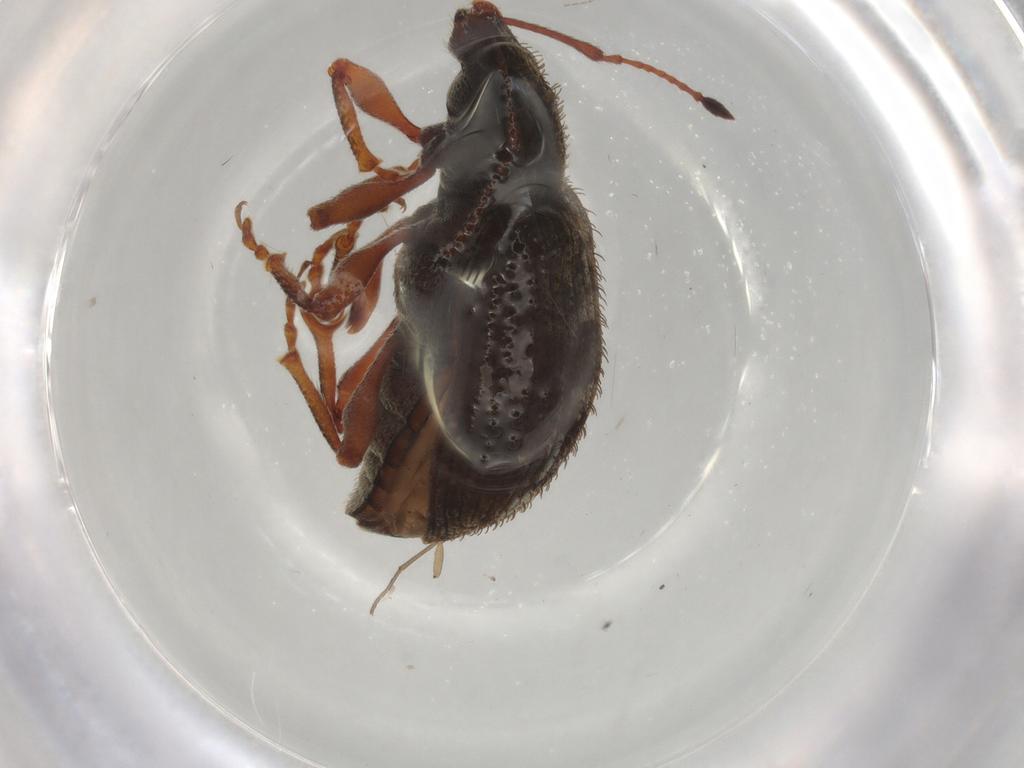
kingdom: Animalia
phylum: Arthropoda
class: Insecta
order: Coleoptera
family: Curculionidae
